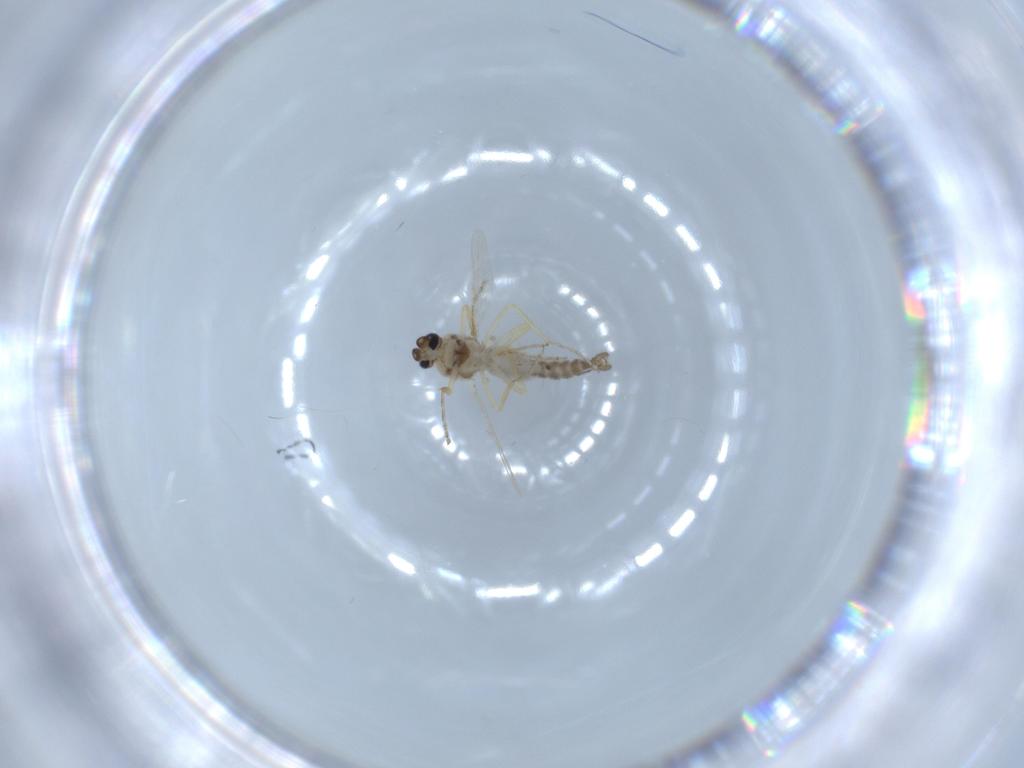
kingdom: Animalia
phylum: Arthropoda
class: Insecta
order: Diptera
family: Ceratopogonidae
